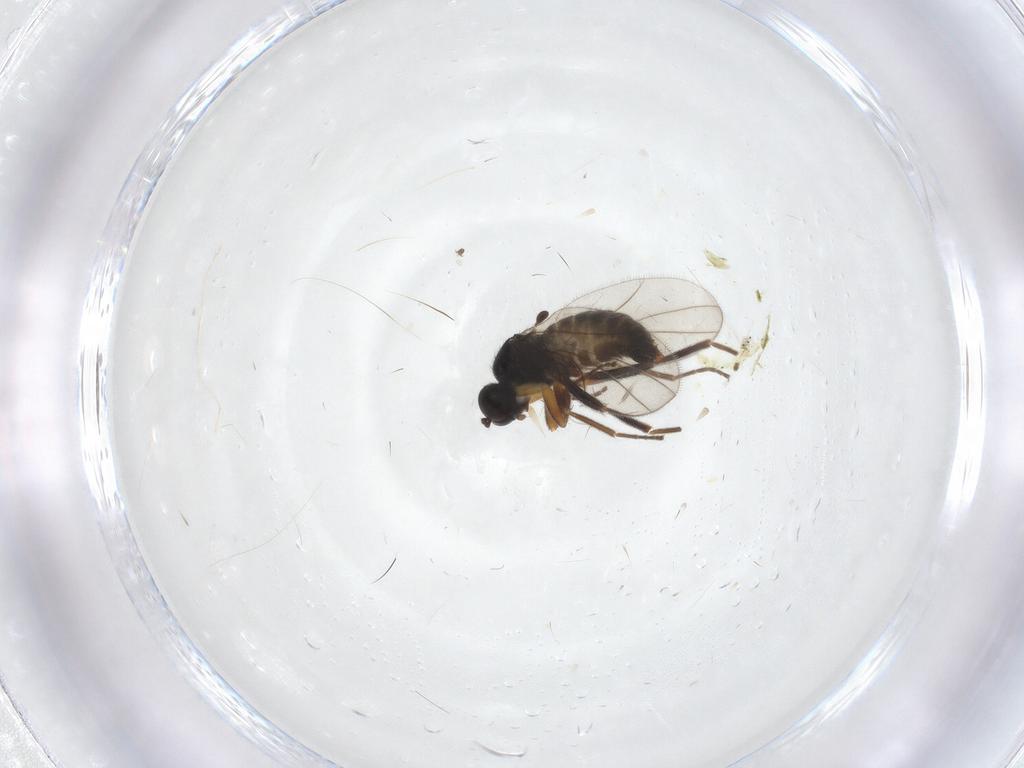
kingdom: Animalia
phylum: Arthropoda
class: Insecta
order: Diptera
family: Hybotidae
